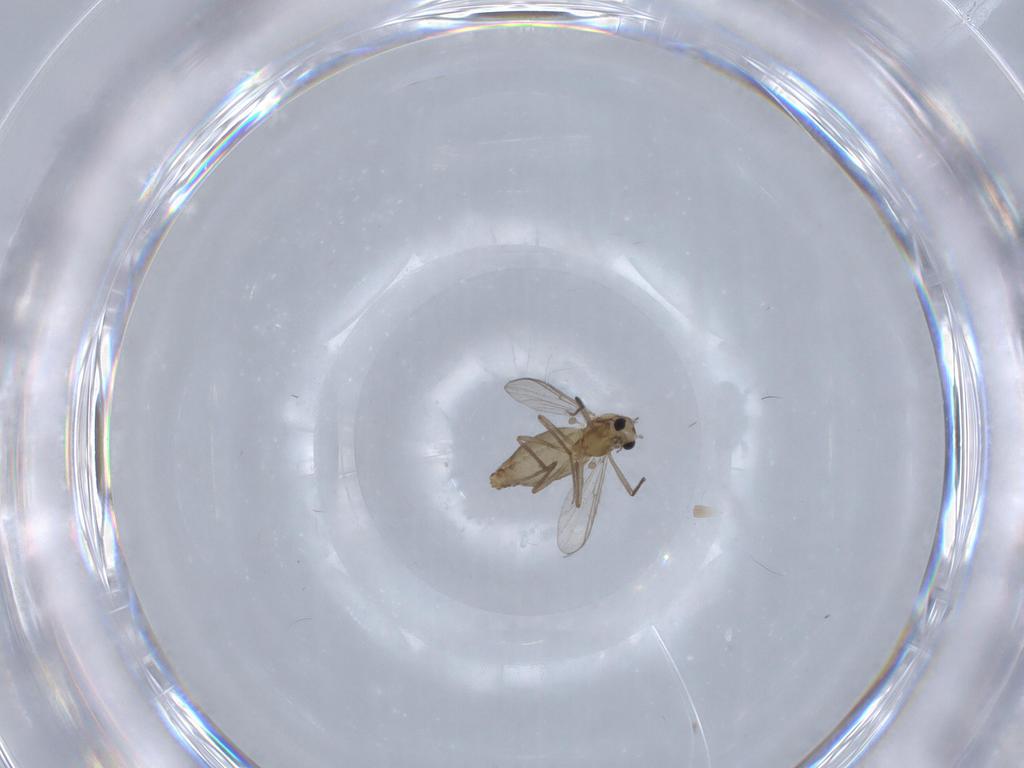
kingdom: Animalia
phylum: Arthropoda
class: Insecta
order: Diptera
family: Chironomidae
